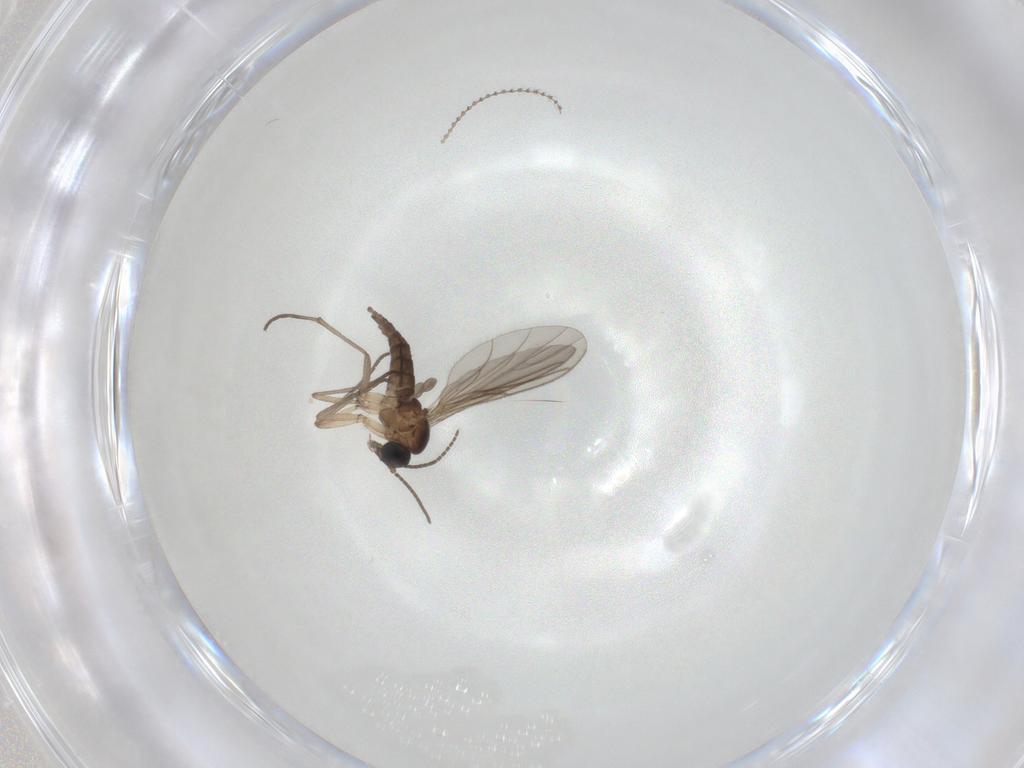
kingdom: Animalia
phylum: Arthropoda
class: Insecta
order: Diptera
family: Sciaridae
